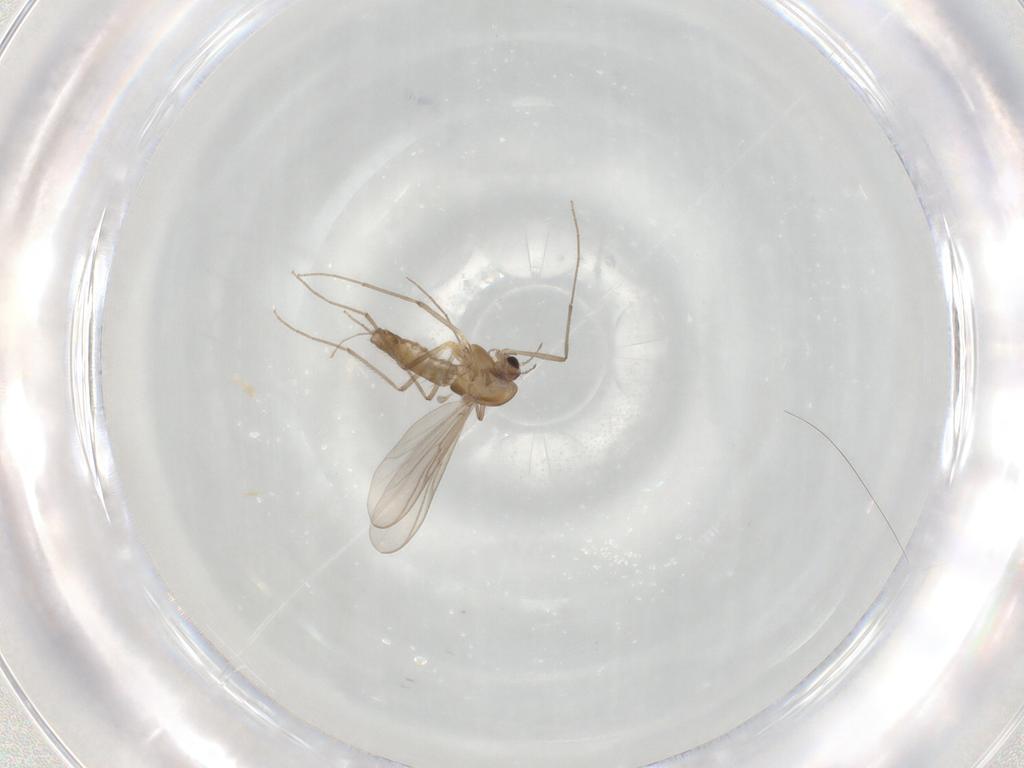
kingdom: Animalia
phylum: Arthropoda
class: Insecta
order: Diptera
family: Chironomidae
